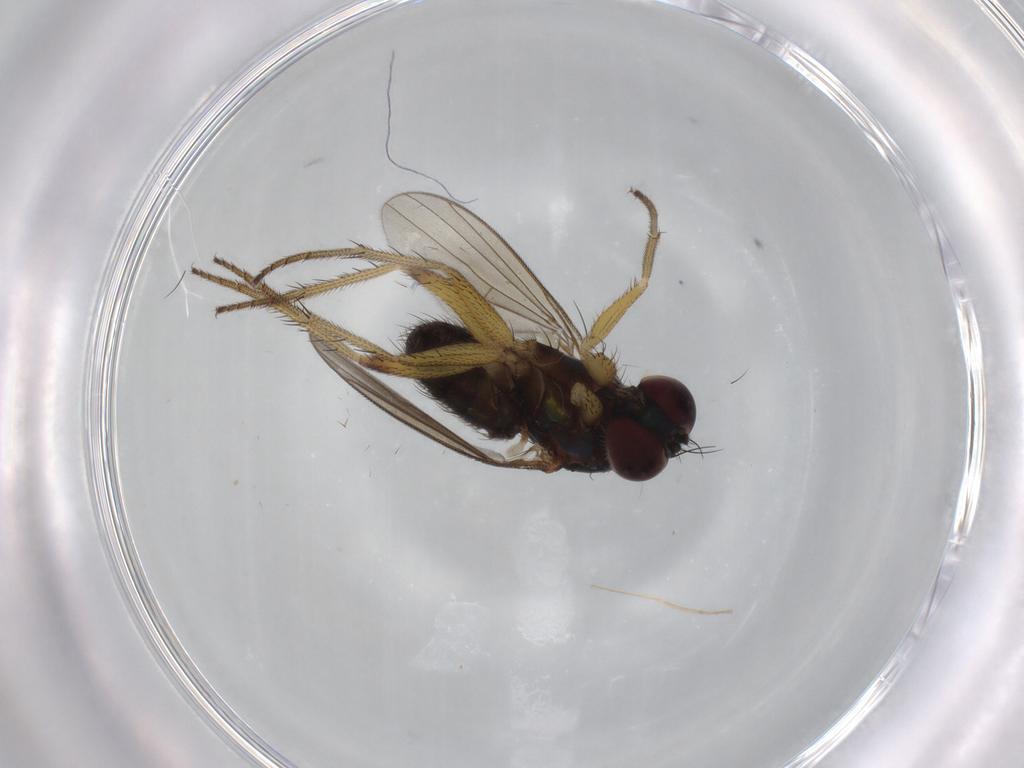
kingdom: Animalia
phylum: Arthropoda
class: Insecta
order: Diptera
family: Dolichopodidae
